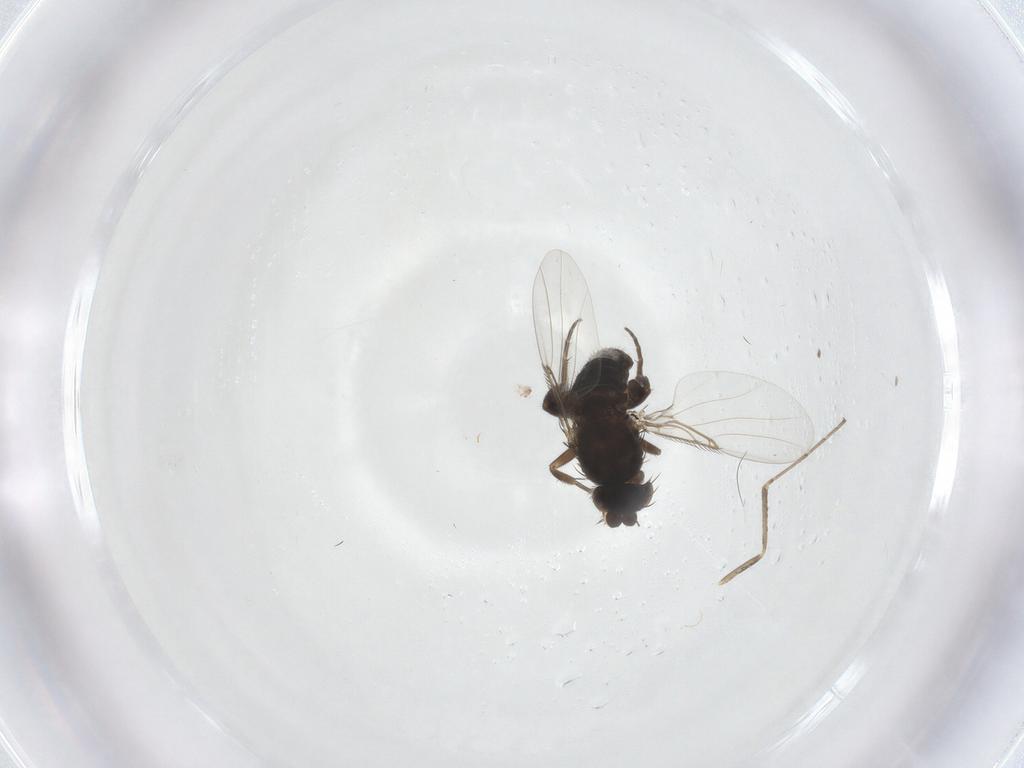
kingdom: Animalia
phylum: Arthropoda
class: Insecta
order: Diptera
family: Cecidomyiidae
